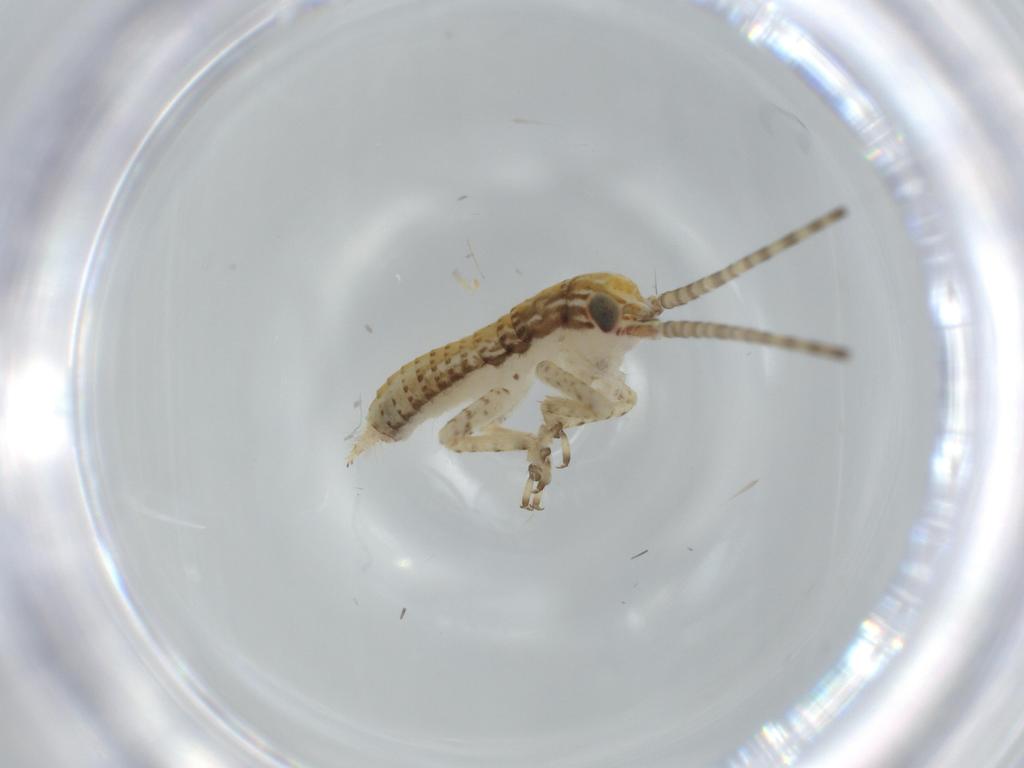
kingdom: Animalia
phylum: Arthropoda
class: Insecta
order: Orthoptera
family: Gryllidae
